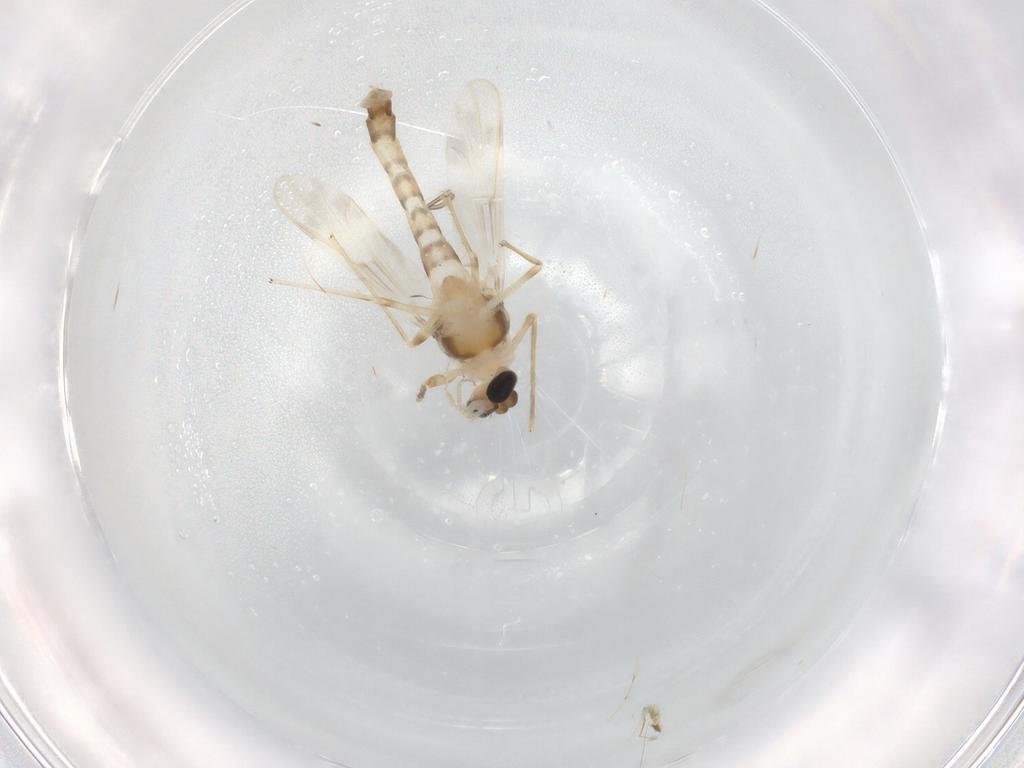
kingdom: Animalia
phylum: Arthropoda
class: Insecta
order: Diptera
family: Chironomidae
